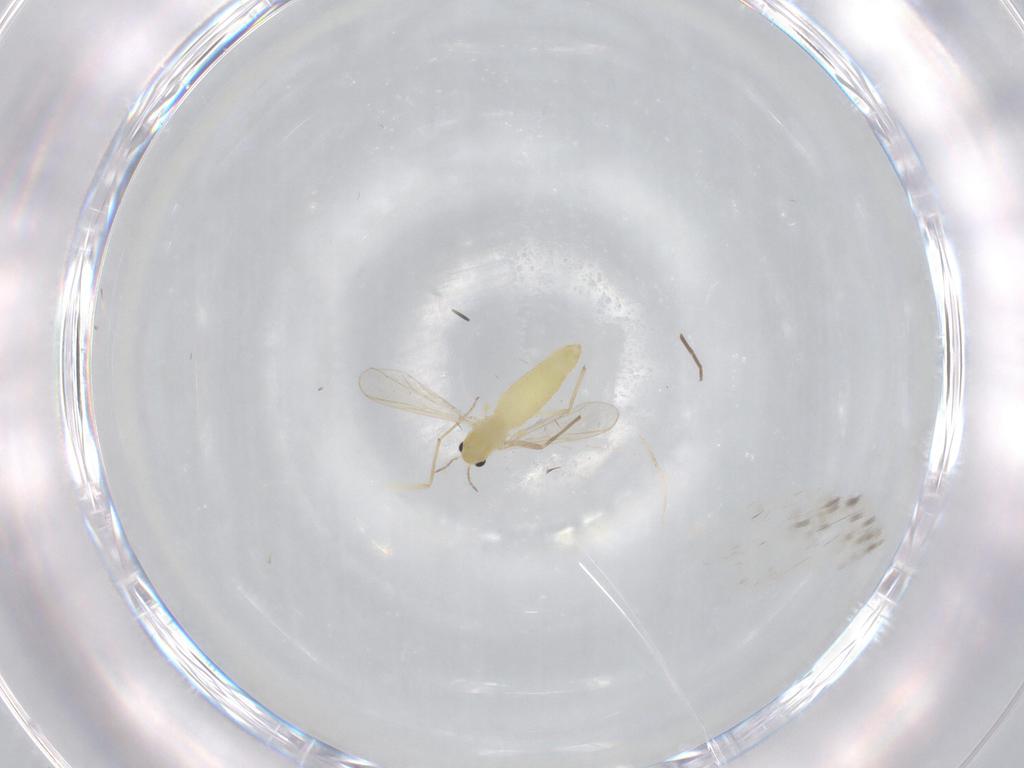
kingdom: Animalia
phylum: Arthropoda
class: Insecta
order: Diptera
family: Chironomidae
